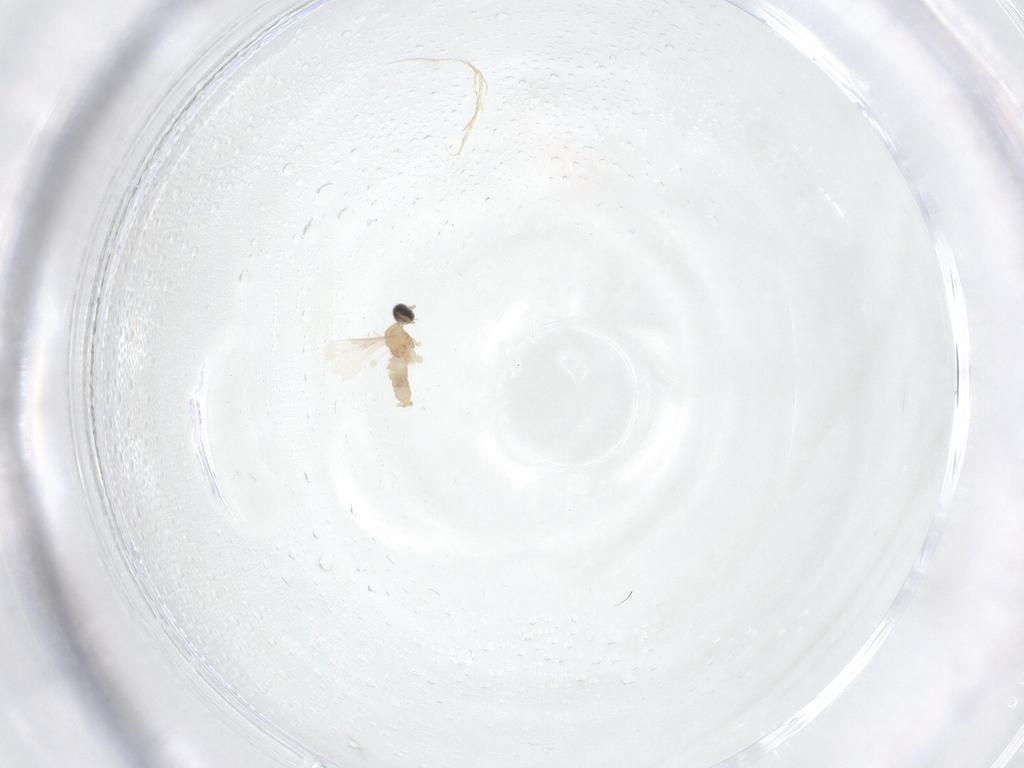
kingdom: Animalia
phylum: Arthropoda
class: Insecta
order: Diptera
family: Cecidomyiidae
